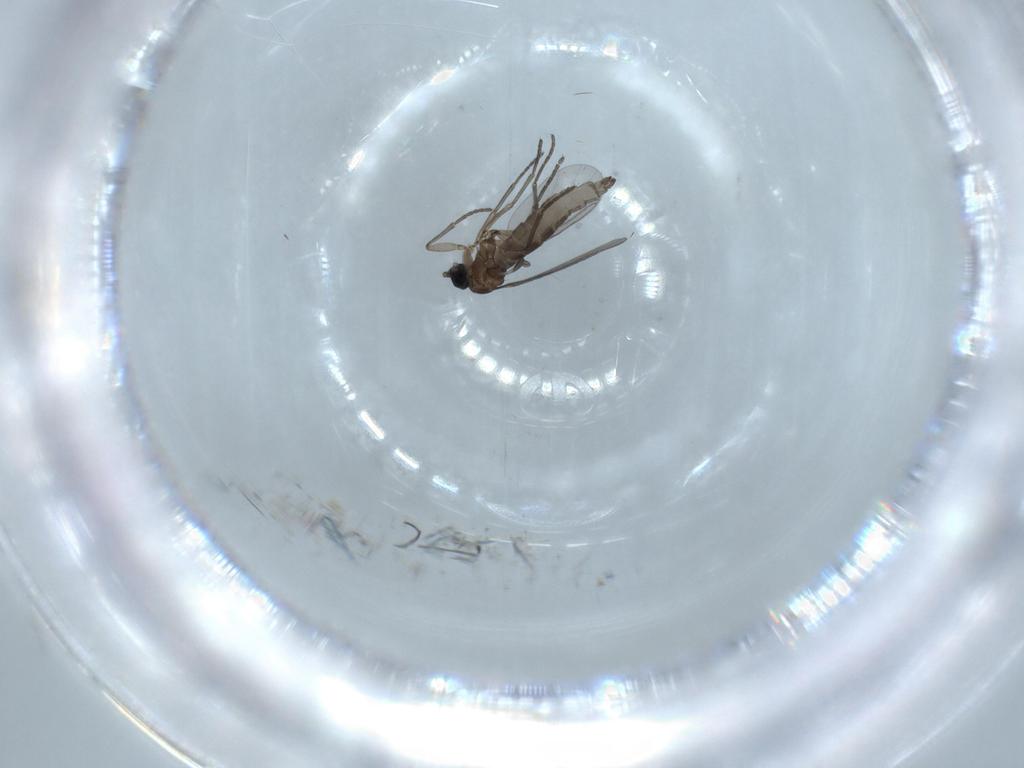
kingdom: Animalia
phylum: Arthropoda
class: Insecta
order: Diptera
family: Dolichopodidae
